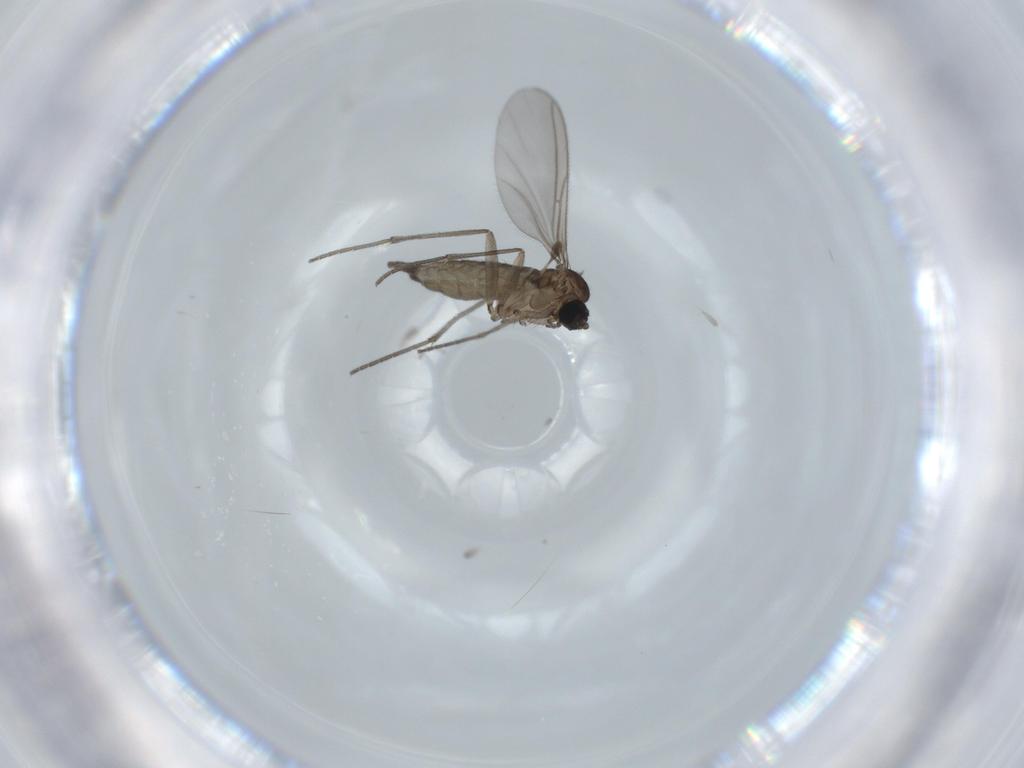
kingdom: Animalia
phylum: Arthropoda
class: Insecta
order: Diptera
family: Sciaridae
